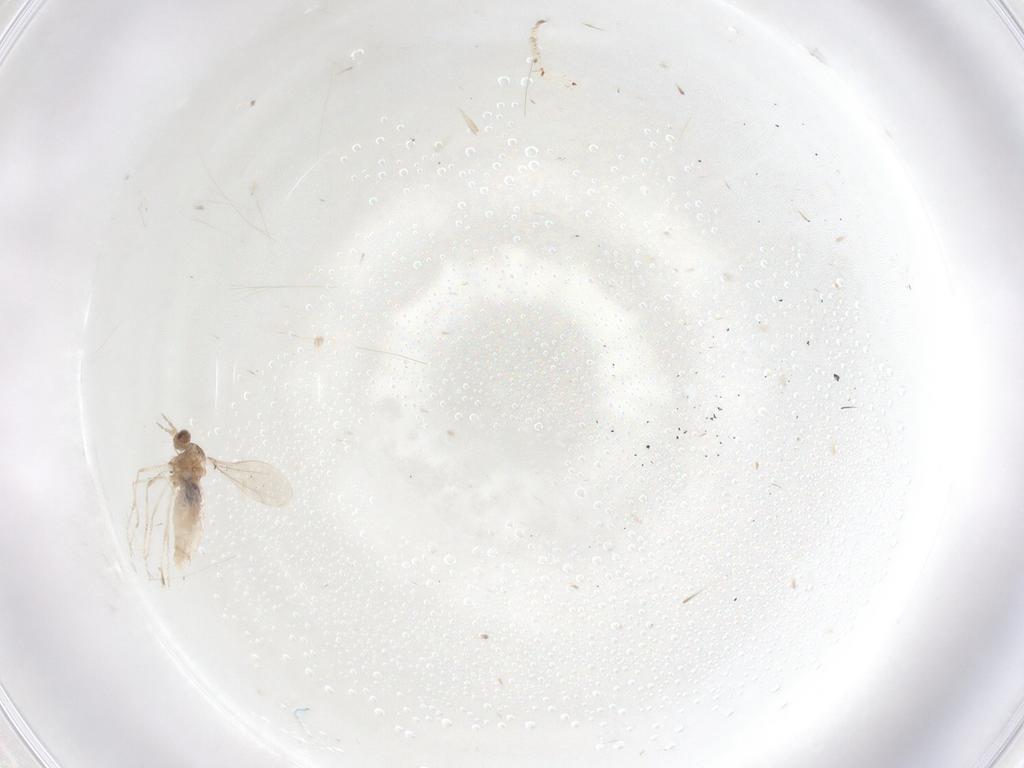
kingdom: Animalia
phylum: Arthropoda
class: Insecta
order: Diptera
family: Cecidomyiidae
